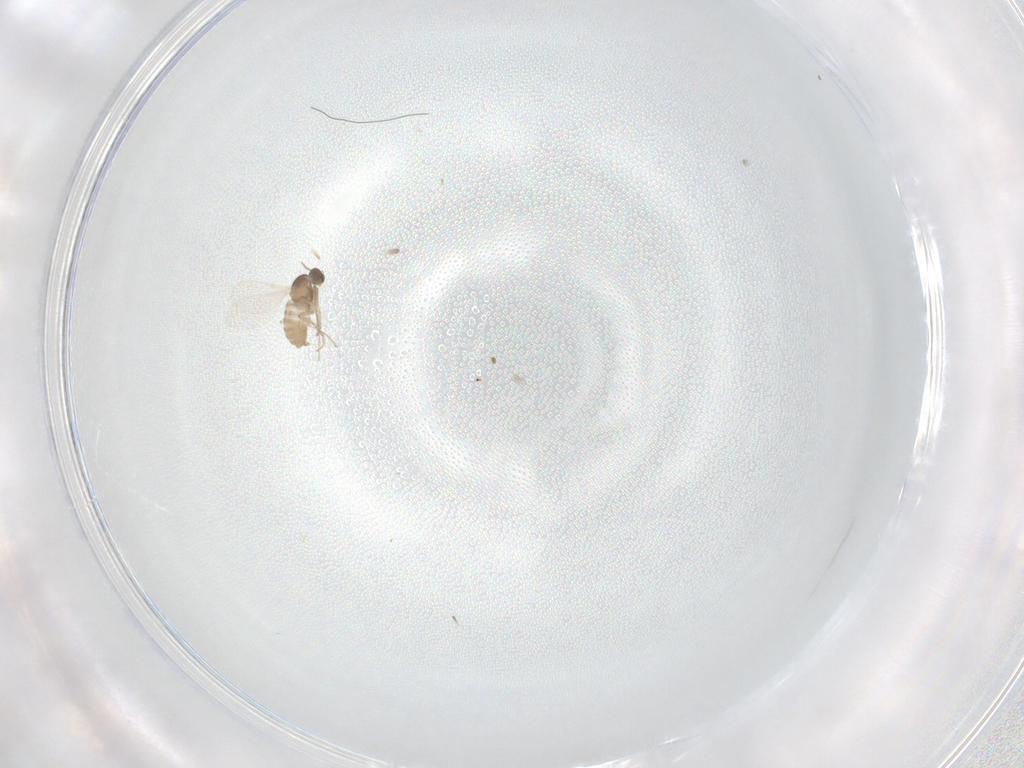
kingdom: Animalia
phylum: Arthropoda
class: Insecta
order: Diptera
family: Cecidomyiidae
